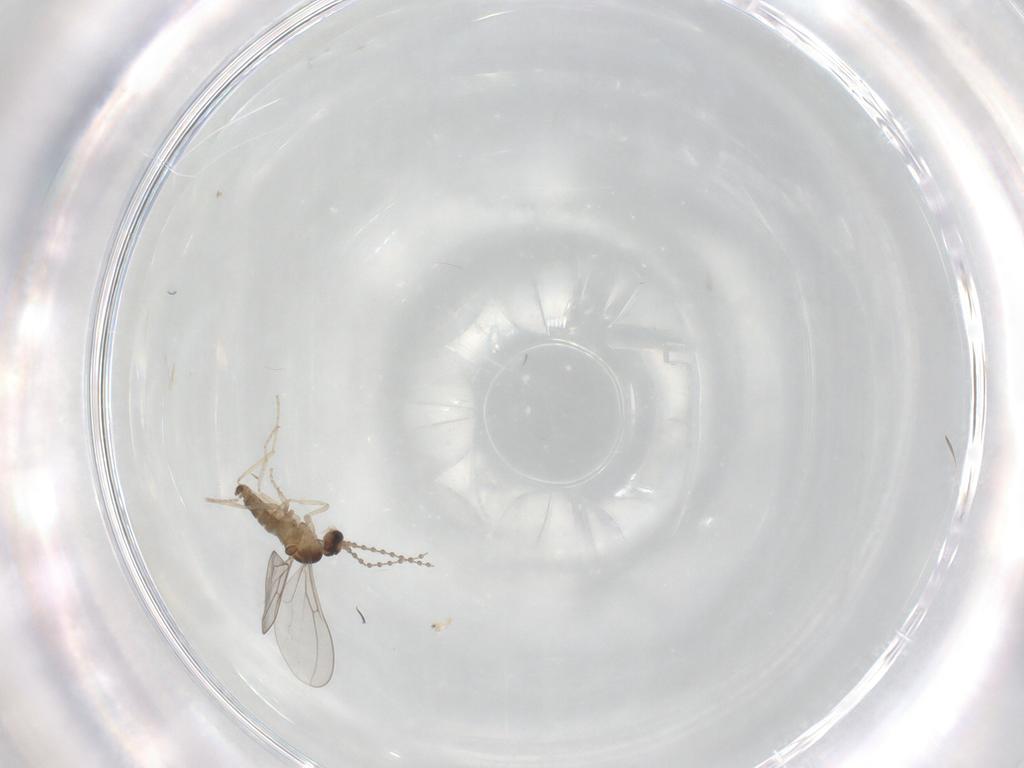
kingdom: Animalia
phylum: Arthropoda
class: Insecta
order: Diptera
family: Cecidomyiidae
